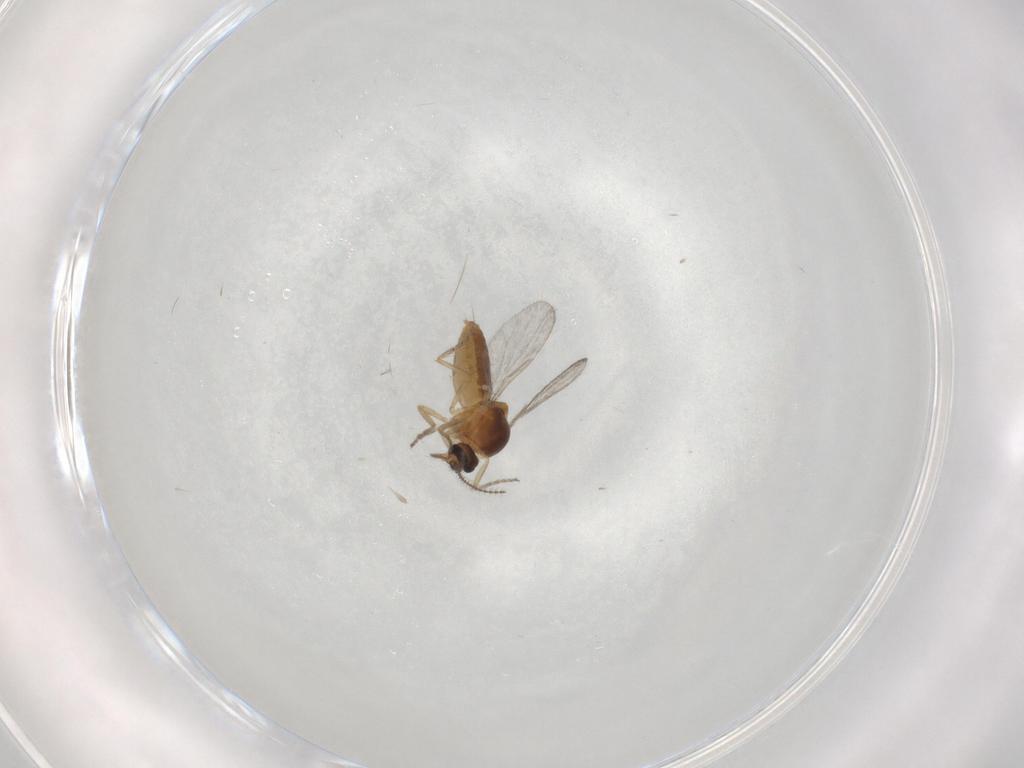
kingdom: Animalia
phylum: Arthropoda
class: Insecta
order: Diptera
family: Ceratopogonidae
